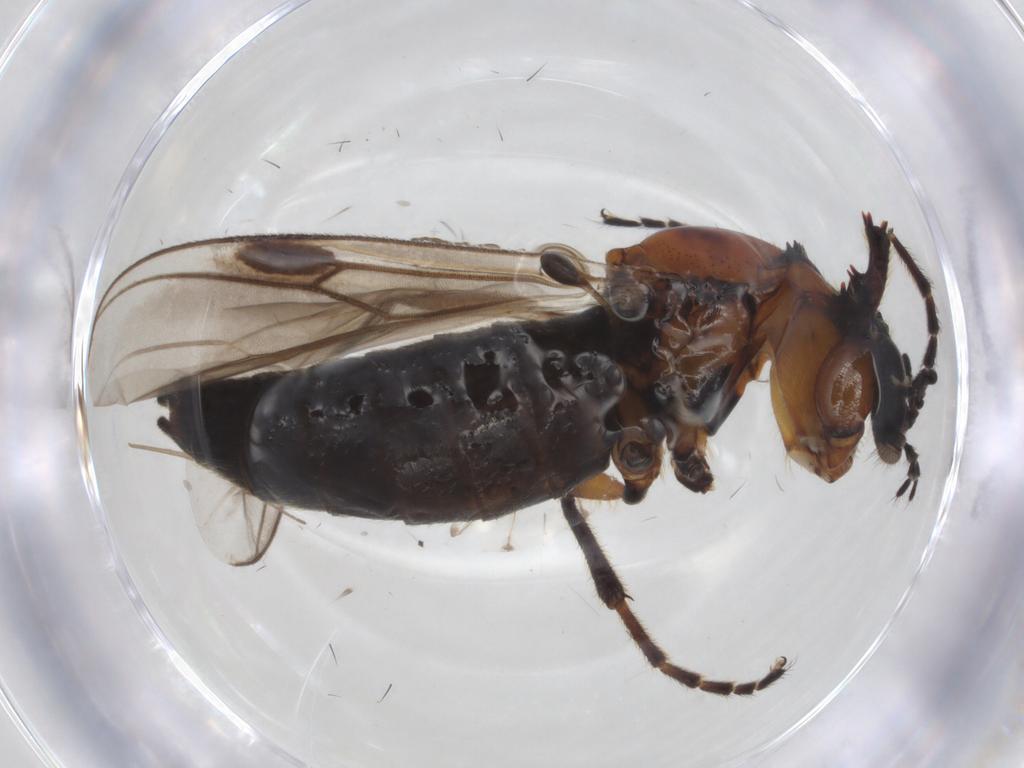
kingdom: Animalia
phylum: Arthropoda
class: Insecta
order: Diptera
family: Bibionidae
